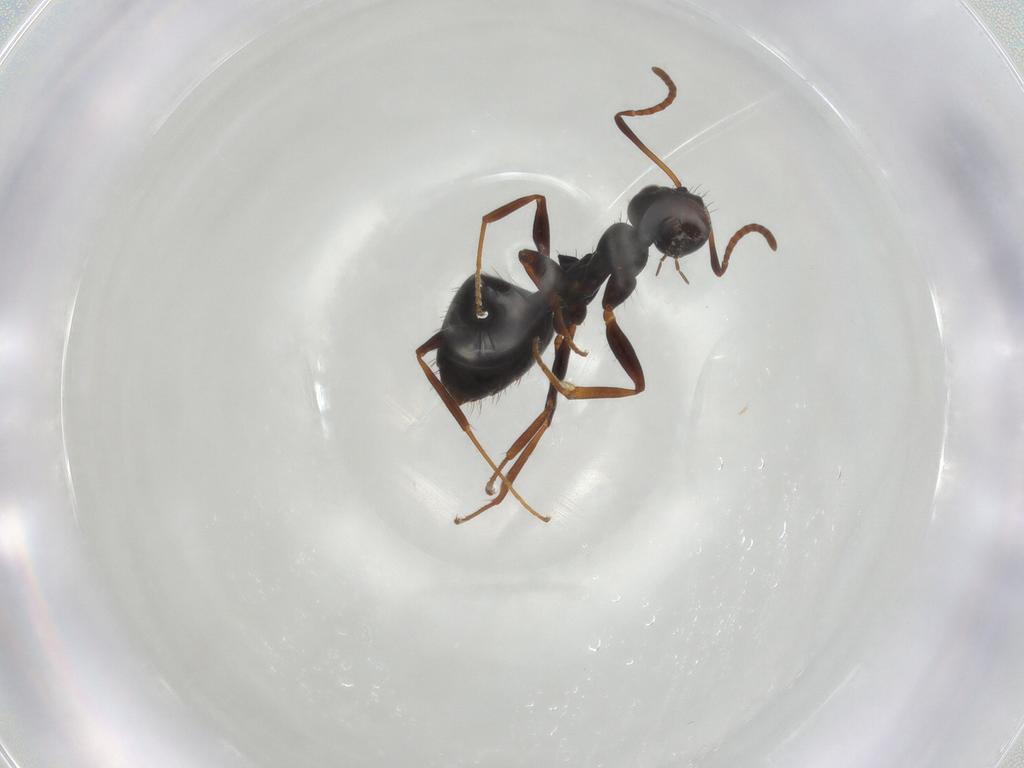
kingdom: Animalia
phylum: Arthropoda
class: Insecta
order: Hymenoptera
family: Formicidae
